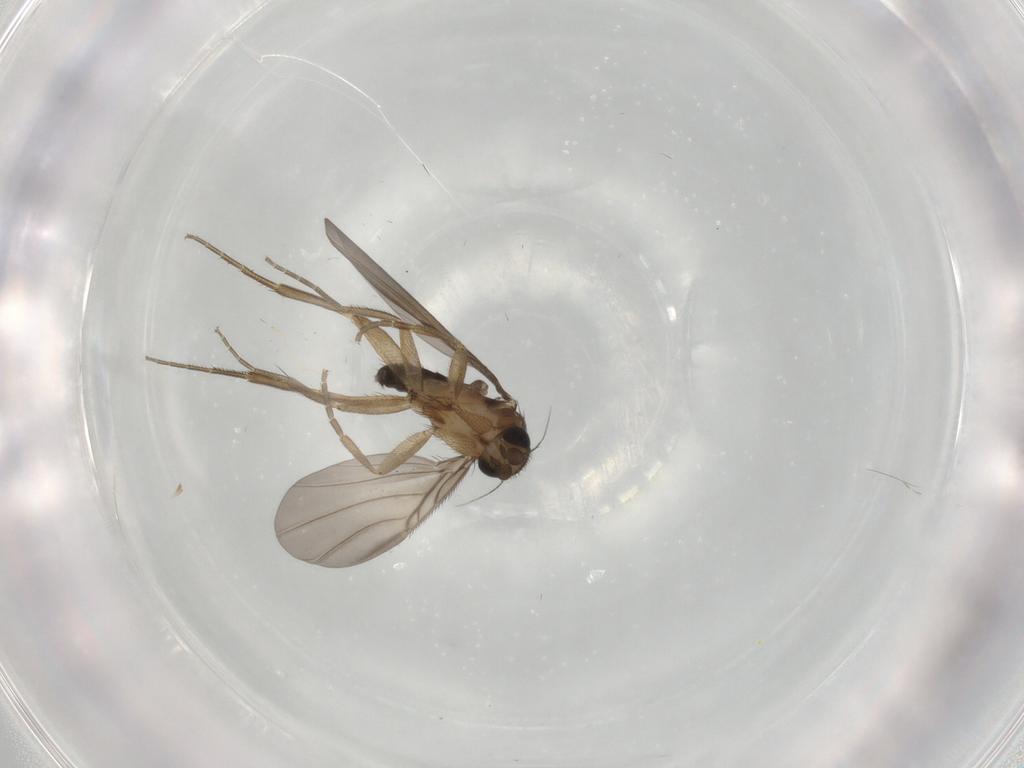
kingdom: Animalia
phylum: Arthropoda
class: Insecta
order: Diptera
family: Phoridae
